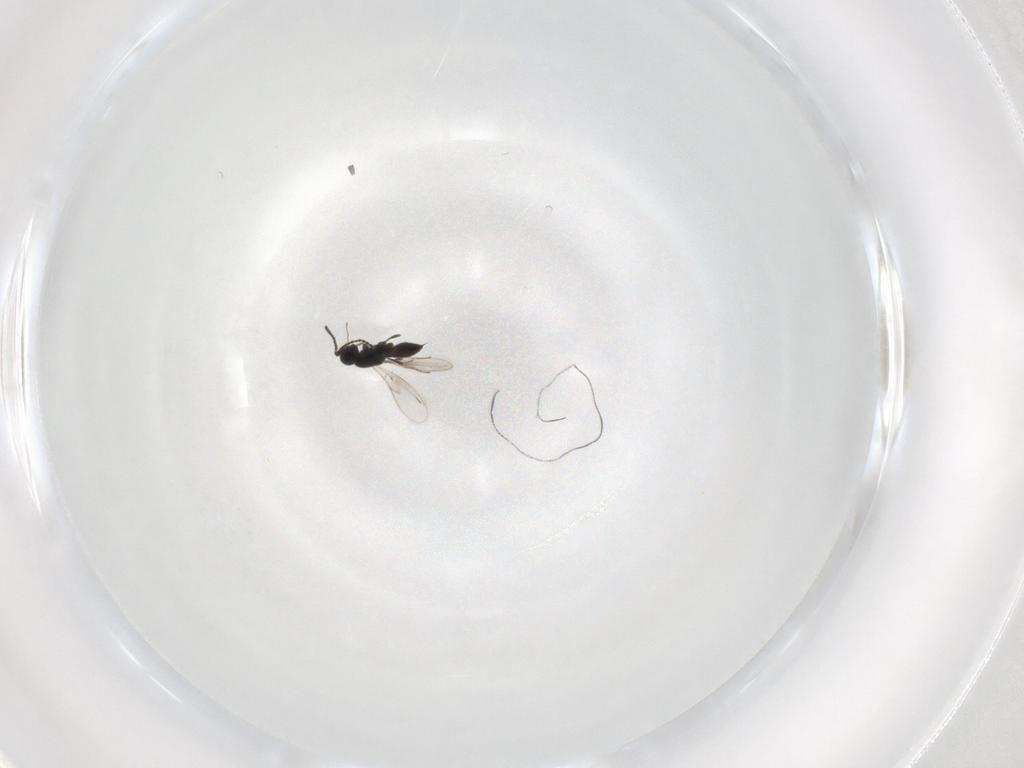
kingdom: Animalia
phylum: Arthropoda
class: Insecta
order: Hymenoptera
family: Scelionidae
